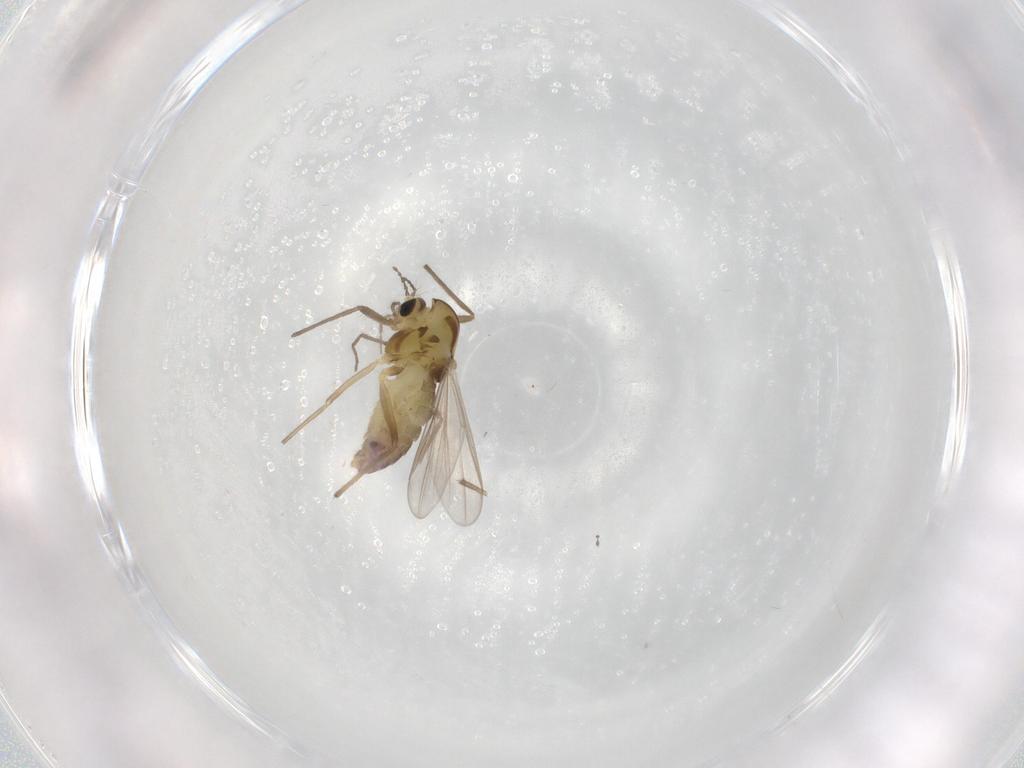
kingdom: Animalia
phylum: Arthropoda
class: Insecta
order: Diptera
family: Chironomidae
